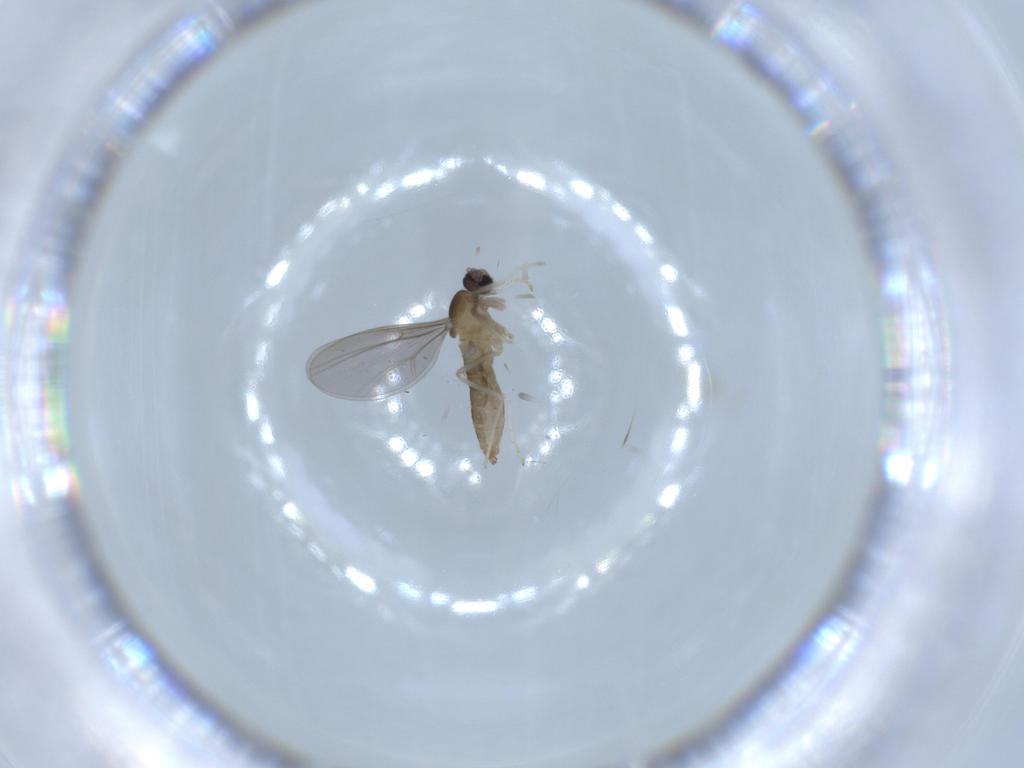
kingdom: Animalia
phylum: Arthropoda
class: Insecta
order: Diptera
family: Cecidomyiidae
